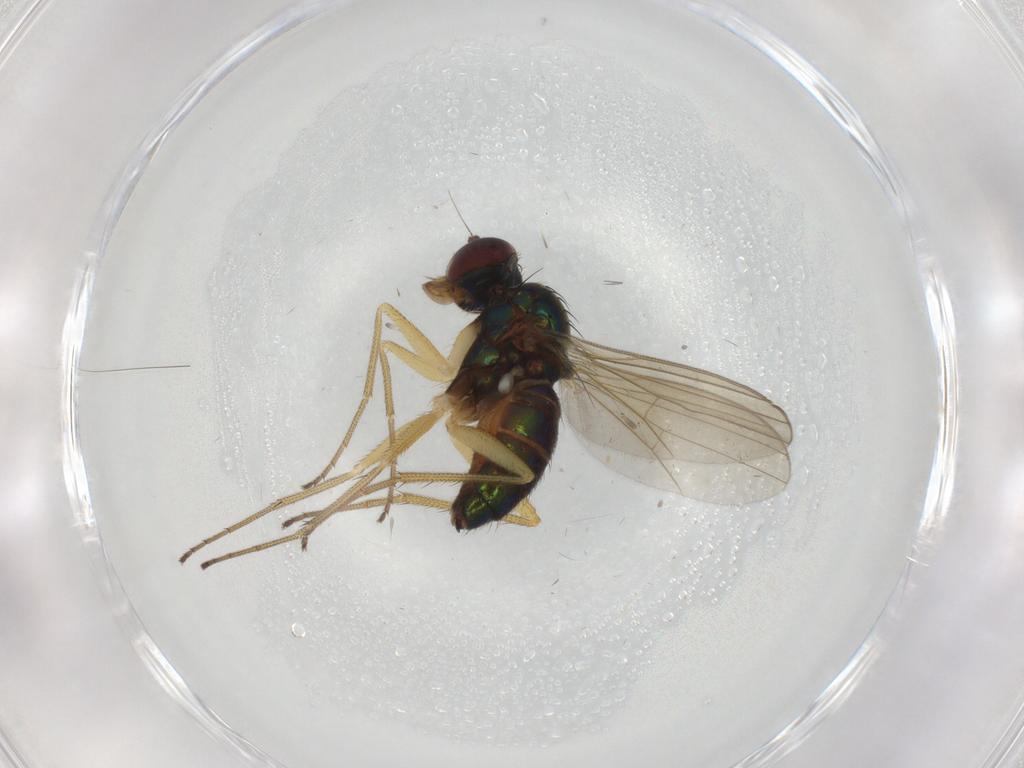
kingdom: Animalia
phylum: Arthropoda
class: Insecta
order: Diptera
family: Dolichopodidae
